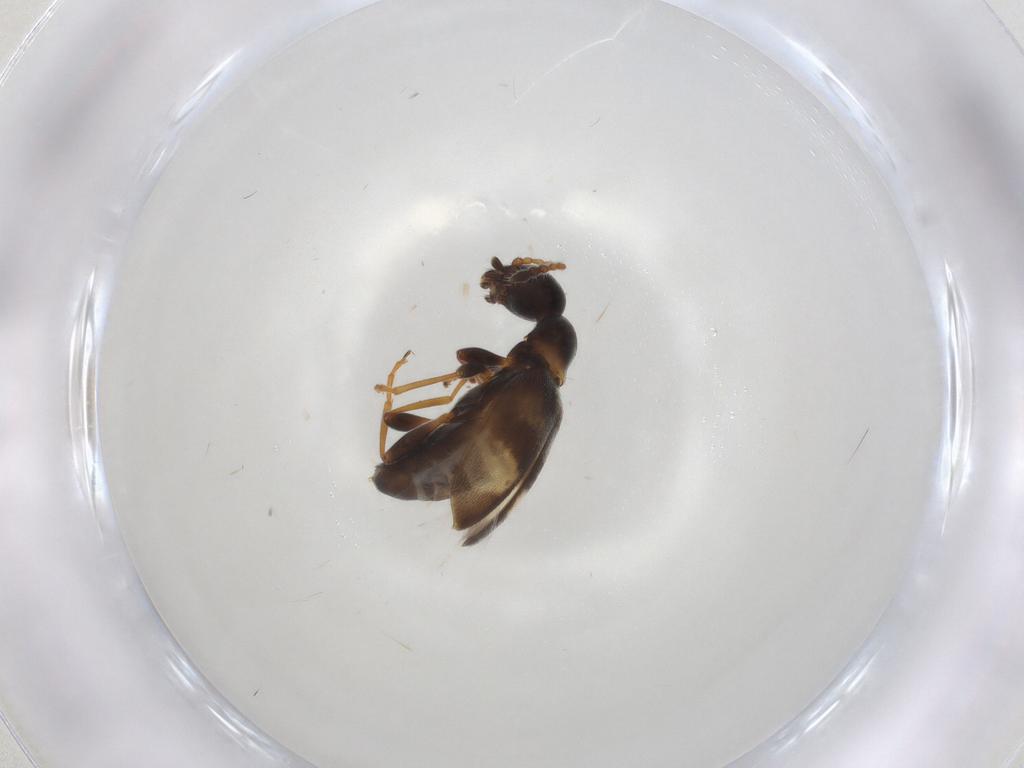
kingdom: Animalia
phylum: Arthropoda
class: Insecta
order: Coleoptera
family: Anthicidae
